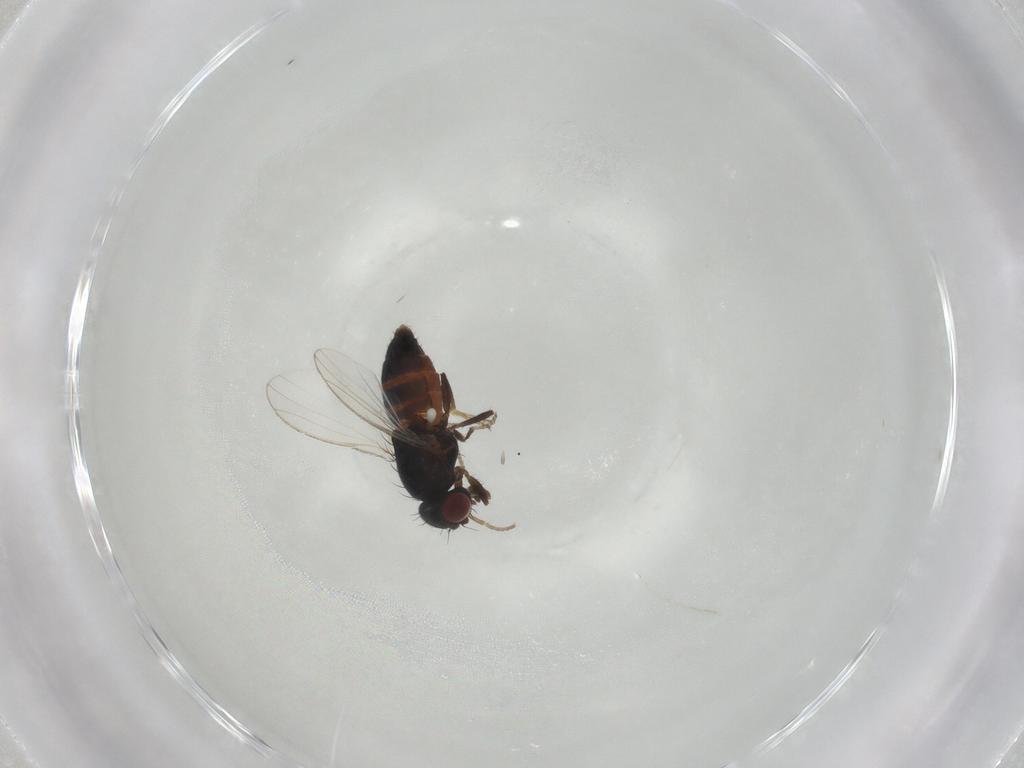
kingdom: Animalia
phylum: Arthropoda
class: Insecta
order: Diptera
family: Carnidae
